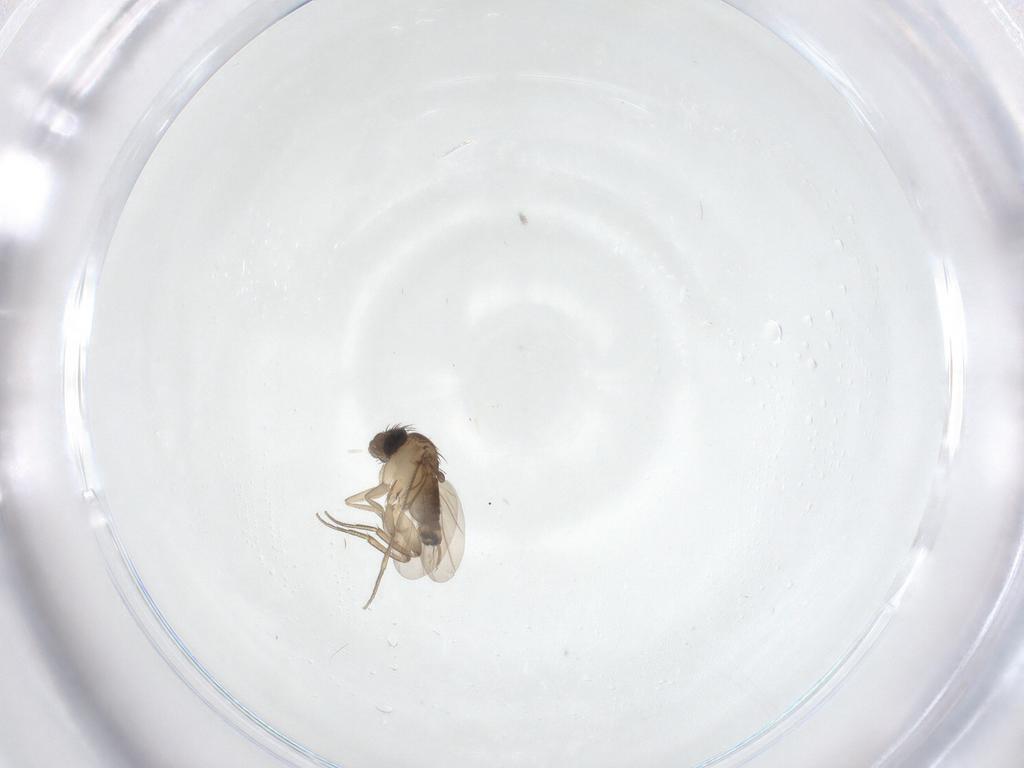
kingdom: Animalia
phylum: Arthropoda
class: Insecta
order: Diptera
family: Phoridae
